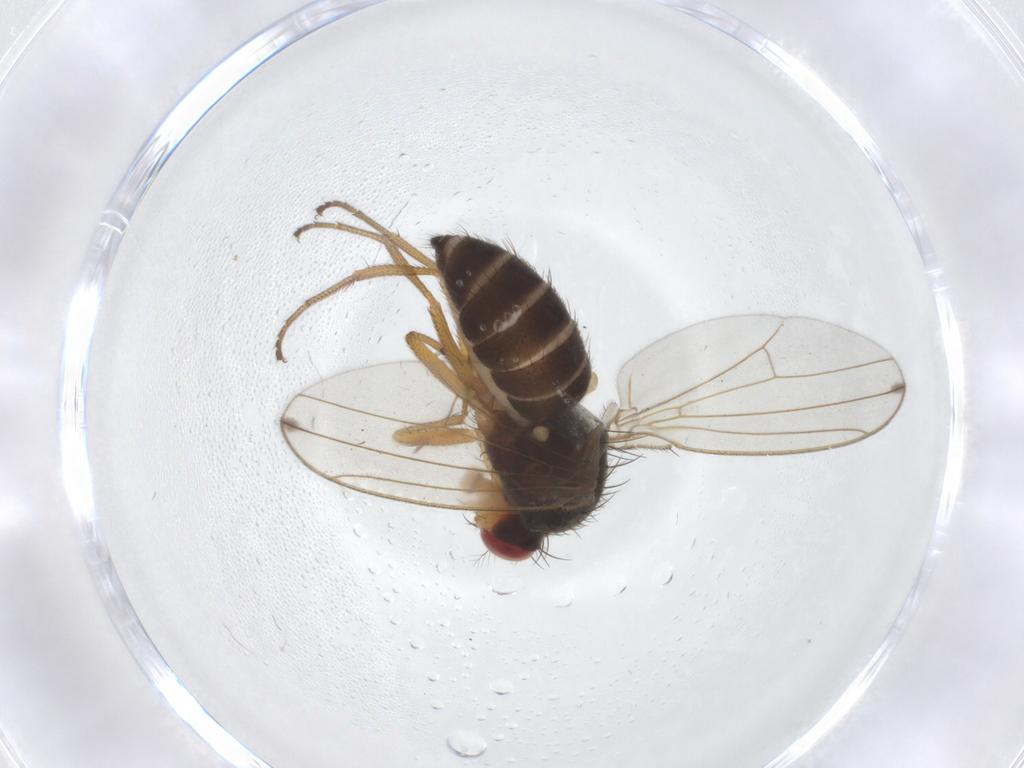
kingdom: Animalia
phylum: Arthropoda
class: Insecta
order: Diptera
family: Drosophilidae
